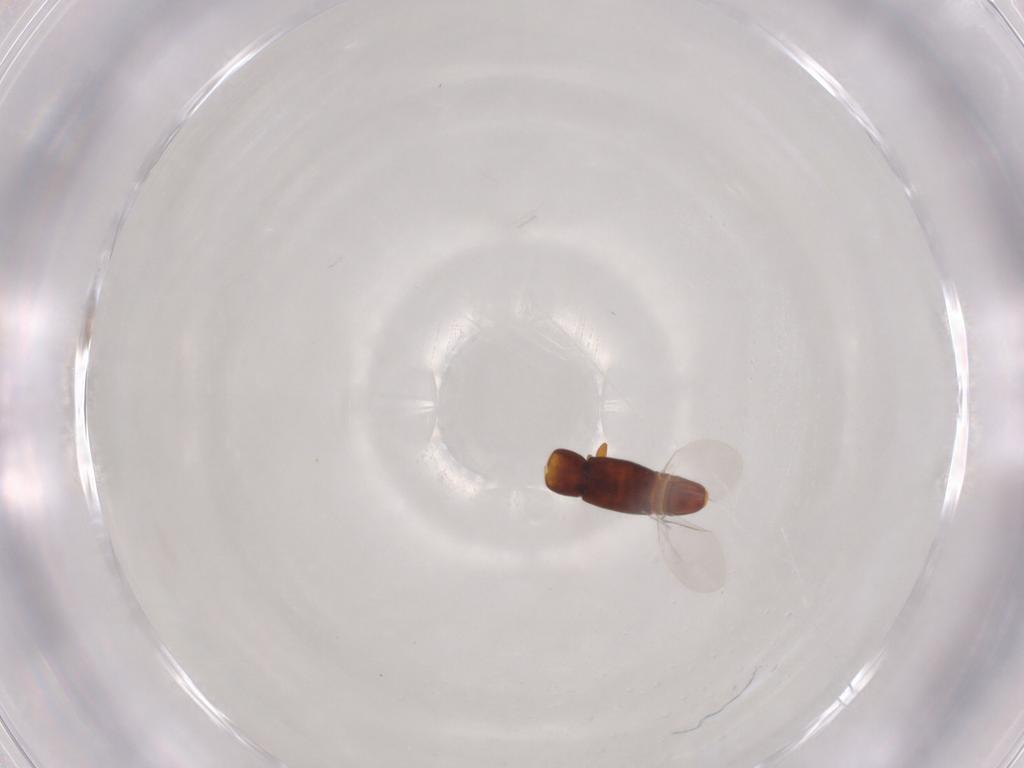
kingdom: Animalia
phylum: Arthropoda
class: Insecta
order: Coleoptera
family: Smicripidae
